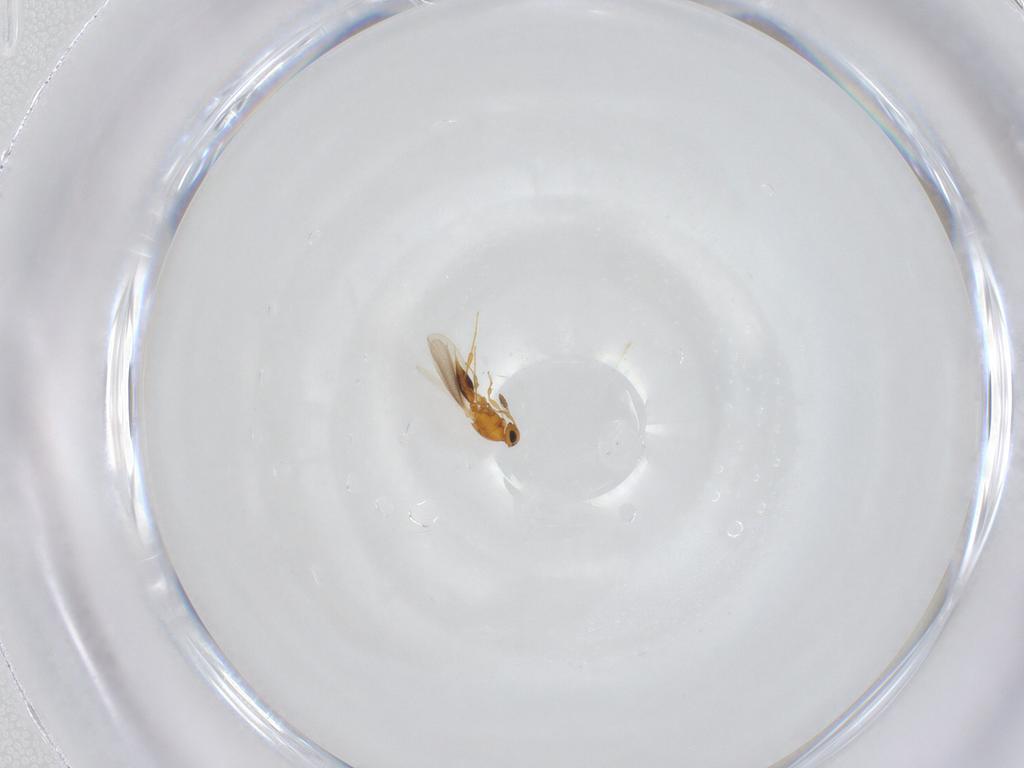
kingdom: Animalia
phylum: Arthropoda
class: Insecta
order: Hymenoptera
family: Platygastridae
